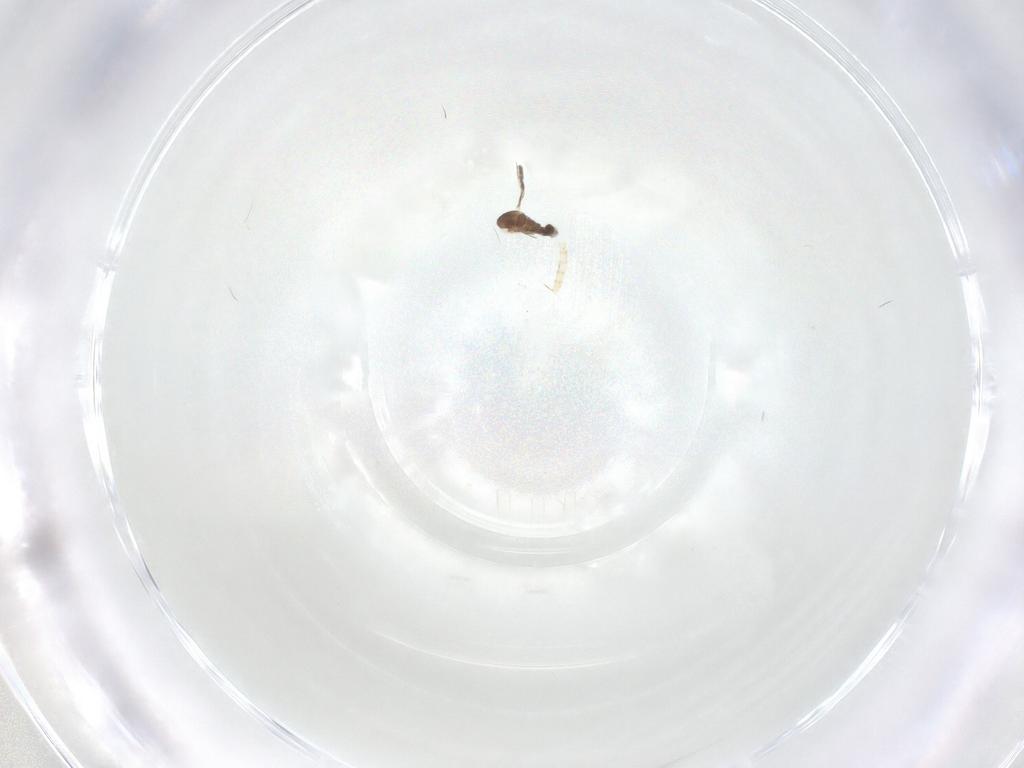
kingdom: Animalia
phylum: Arthropoda
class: Insecta
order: Diptera
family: Cecidomyiidae
